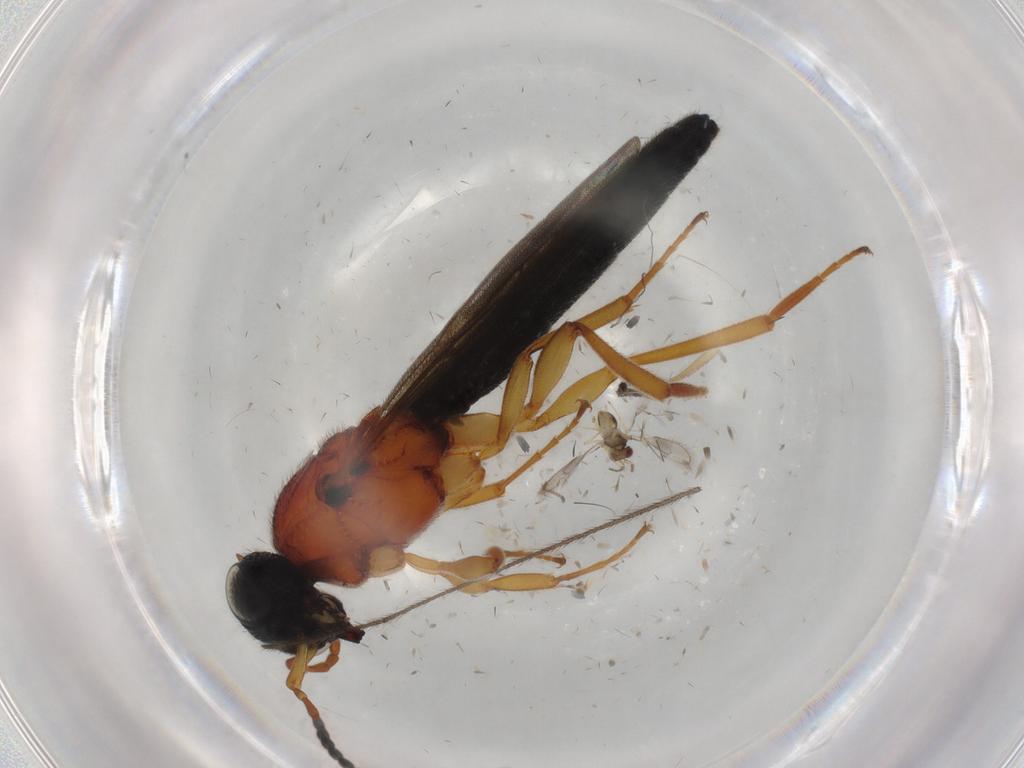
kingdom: Animalia
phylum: Arthropoda
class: Insecta
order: Hymenoptera
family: Scelionidae
